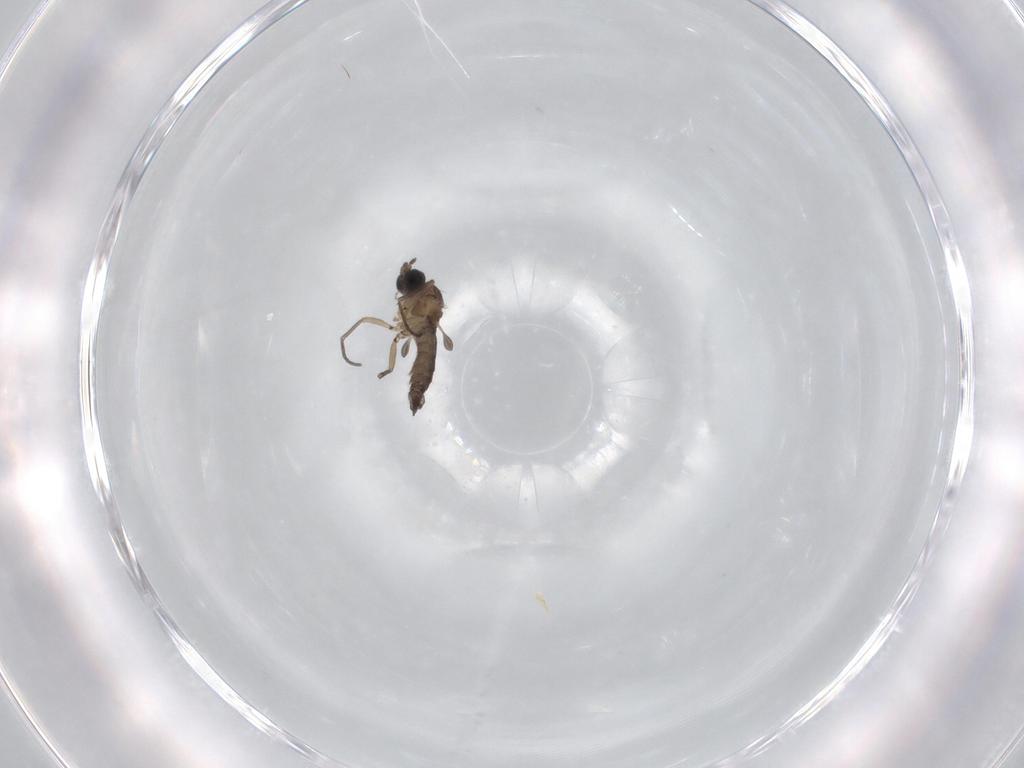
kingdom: Animalia
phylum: Arthropoda
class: Insecta
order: Diptera
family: Sciaridae
